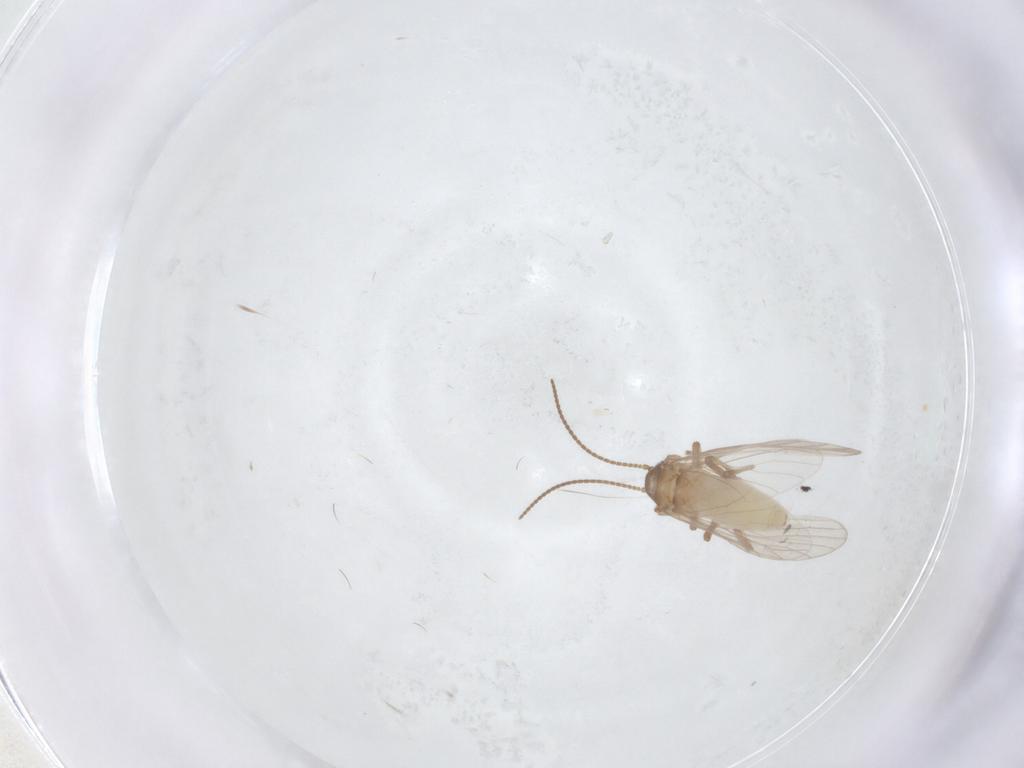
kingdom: Animalia
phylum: Arthropoda
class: Insecta
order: Neuroptera
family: Coniopterygidae
